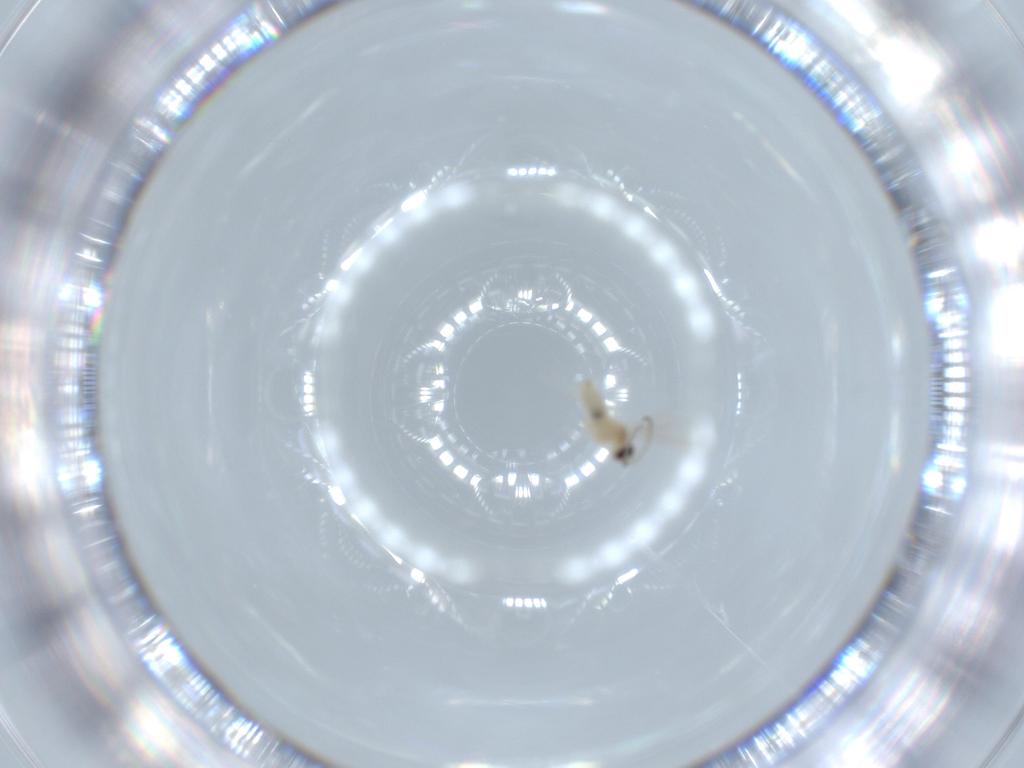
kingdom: Animalia
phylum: Arthropoda
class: Insecta
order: Diptera
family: Cecidomyiidae
